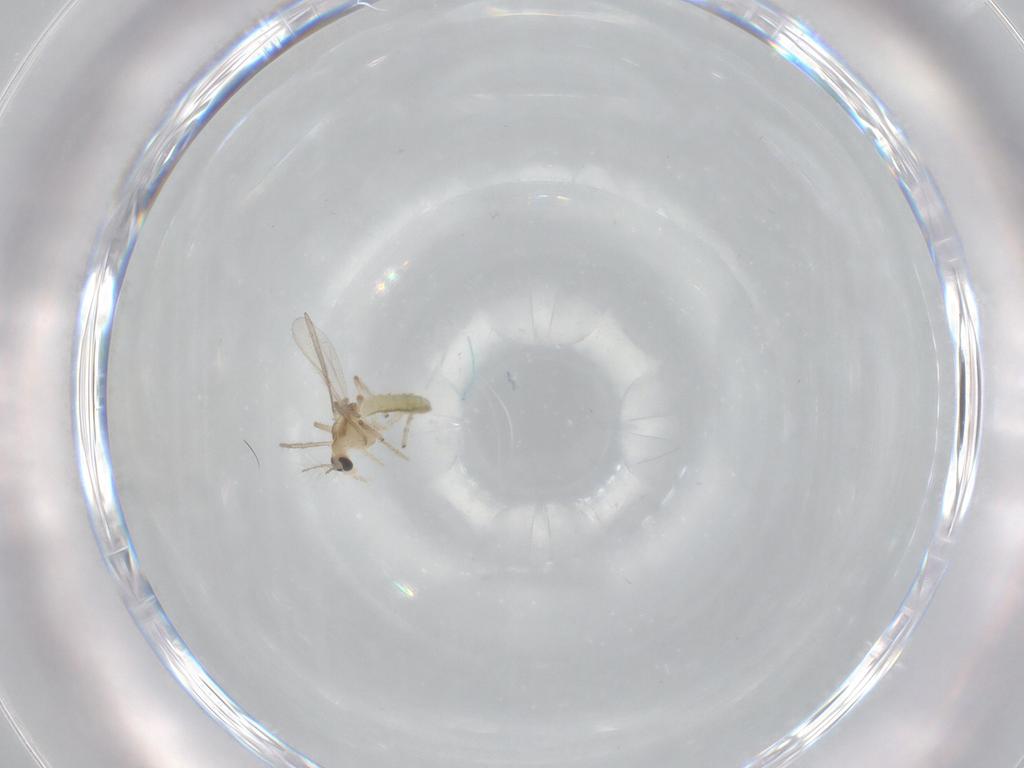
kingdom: Animalia
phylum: Arthropoda
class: Insecta
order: Diptera
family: Chironomidae
